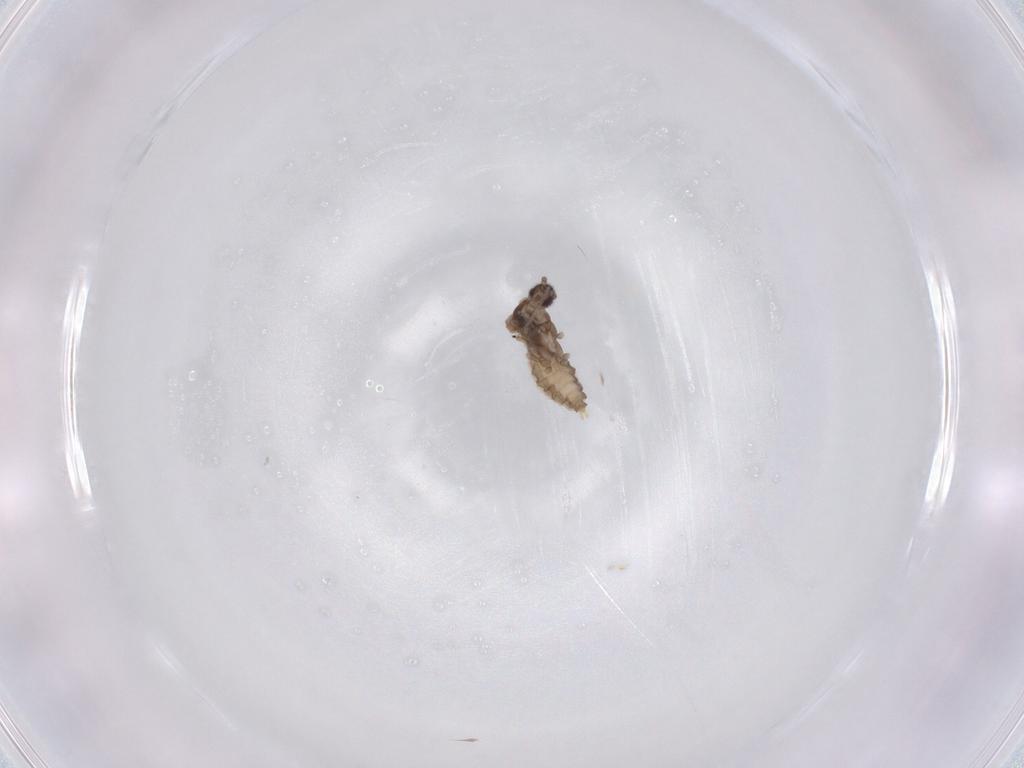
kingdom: Animalia
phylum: Arthropoda
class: Insecta
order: Diptera
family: Cecidomyiidae
